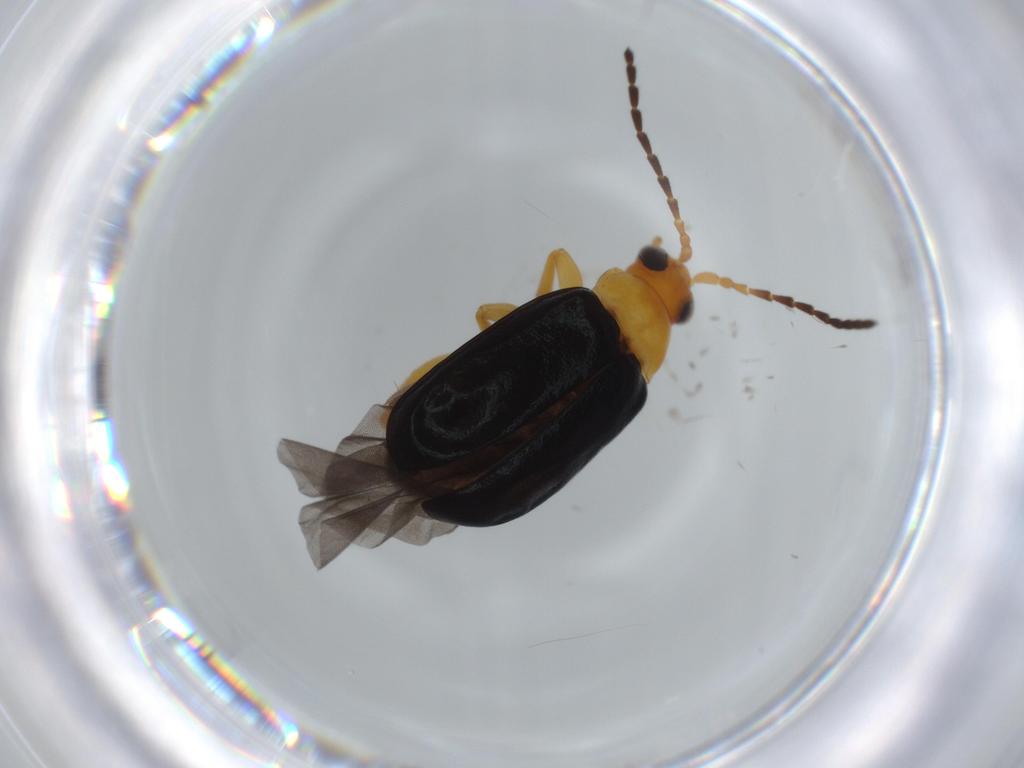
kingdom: Animalia
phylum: Arthropoda
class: Insecta
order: Coleoptera
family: Chrysomelidae
